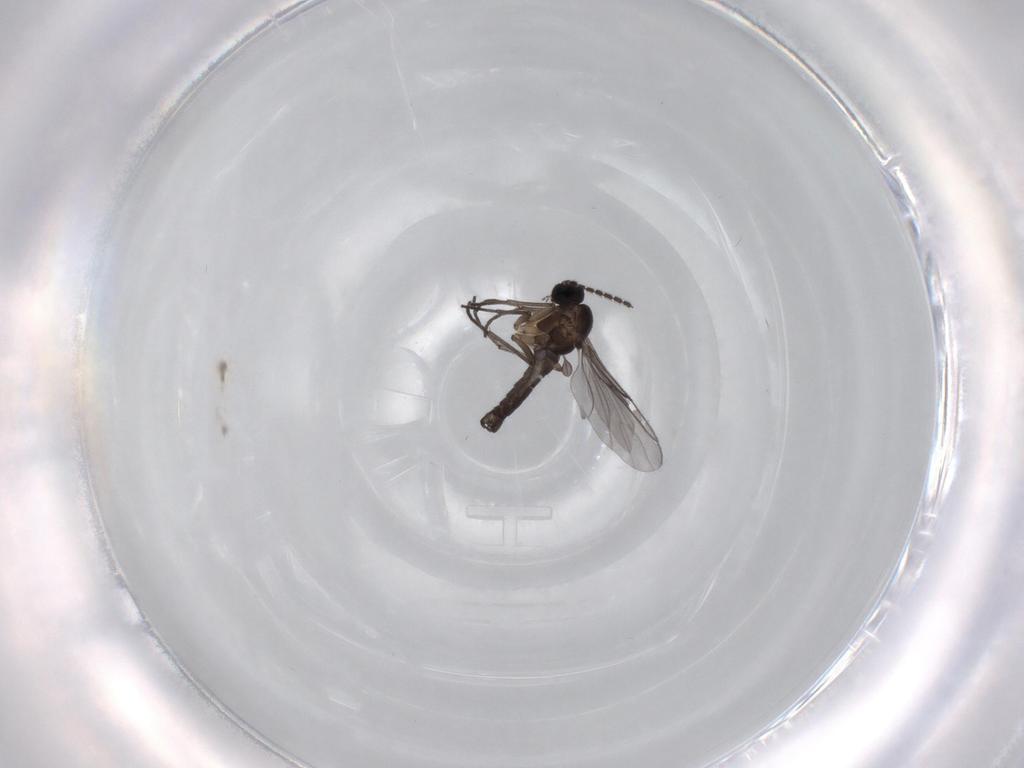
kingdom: Animalia
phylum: Arthropoda
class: Insecta
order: Diptera
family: Sciaridae
